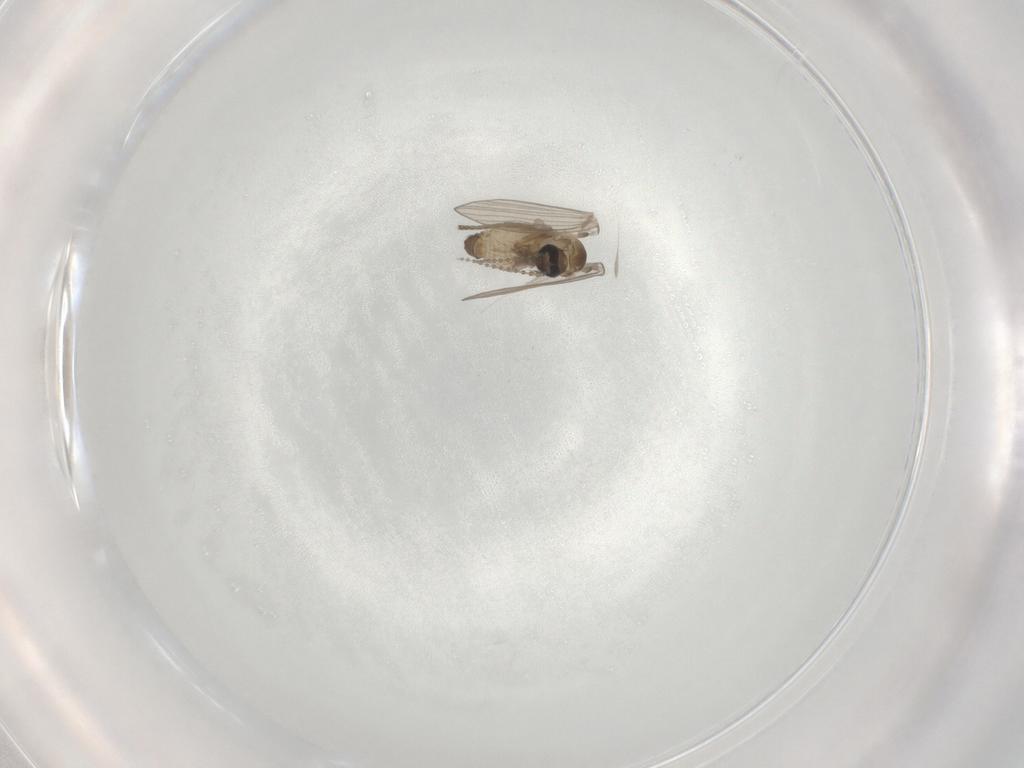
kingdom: Animalia
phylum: Arthropoda
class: Insecta
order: Diptera
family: Psychodidae
